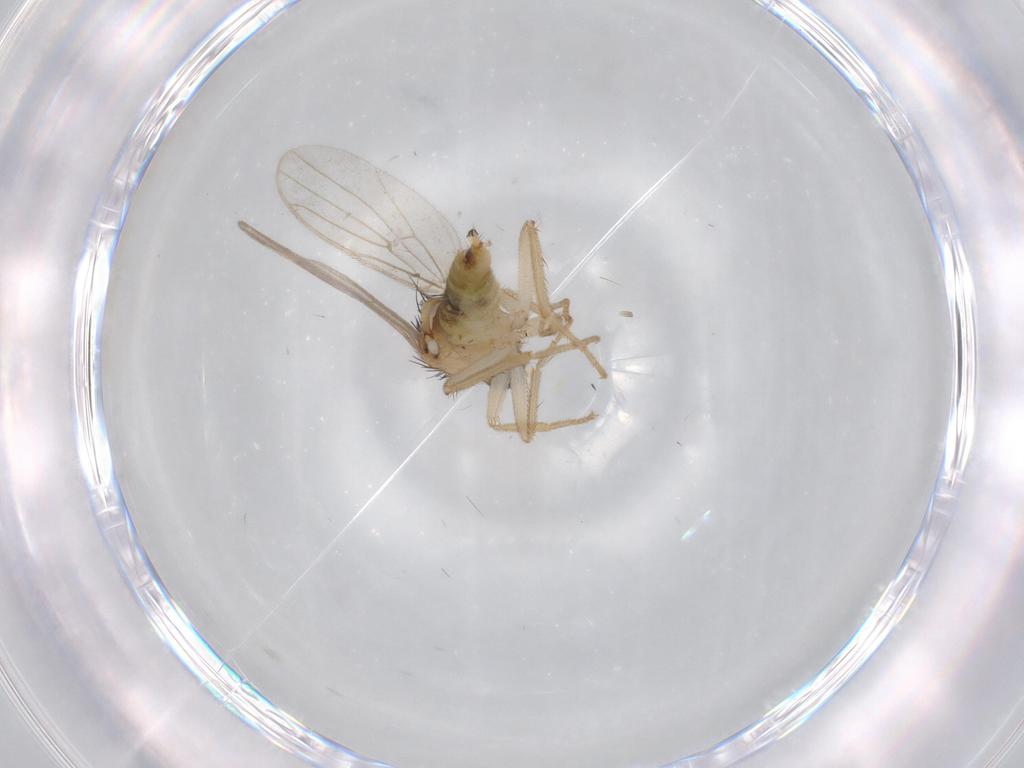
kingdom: Animalia
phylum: Arthropoda
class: Insecta
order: Diptera
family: Hybotidae
